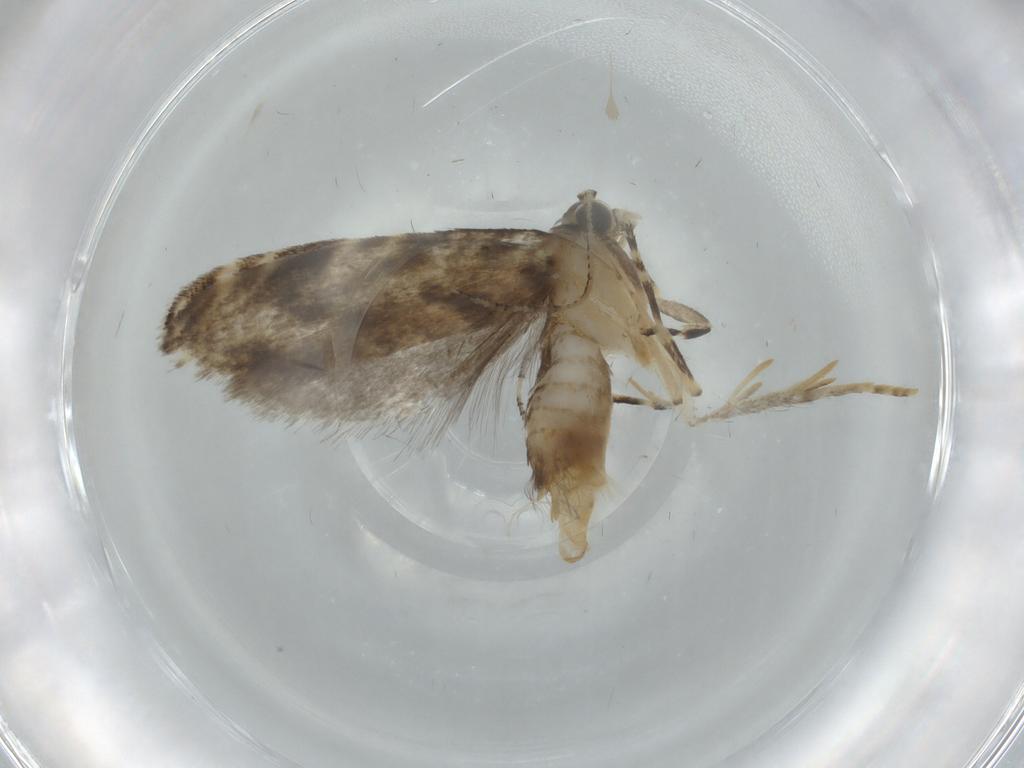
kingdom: Animalia
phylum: Arthropoda
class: Insecta
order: Lepidoptera
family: Tineidae
